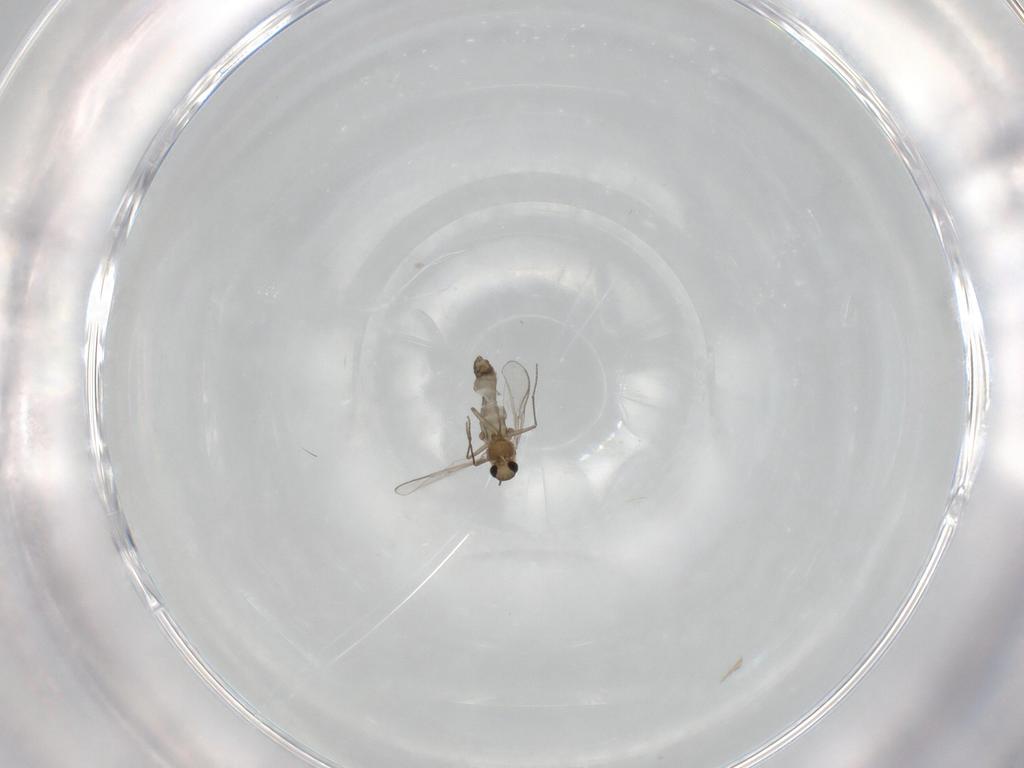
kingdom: Animalia
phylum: Arthropoda
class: Insecta
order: Diptera
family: Chironomidae
